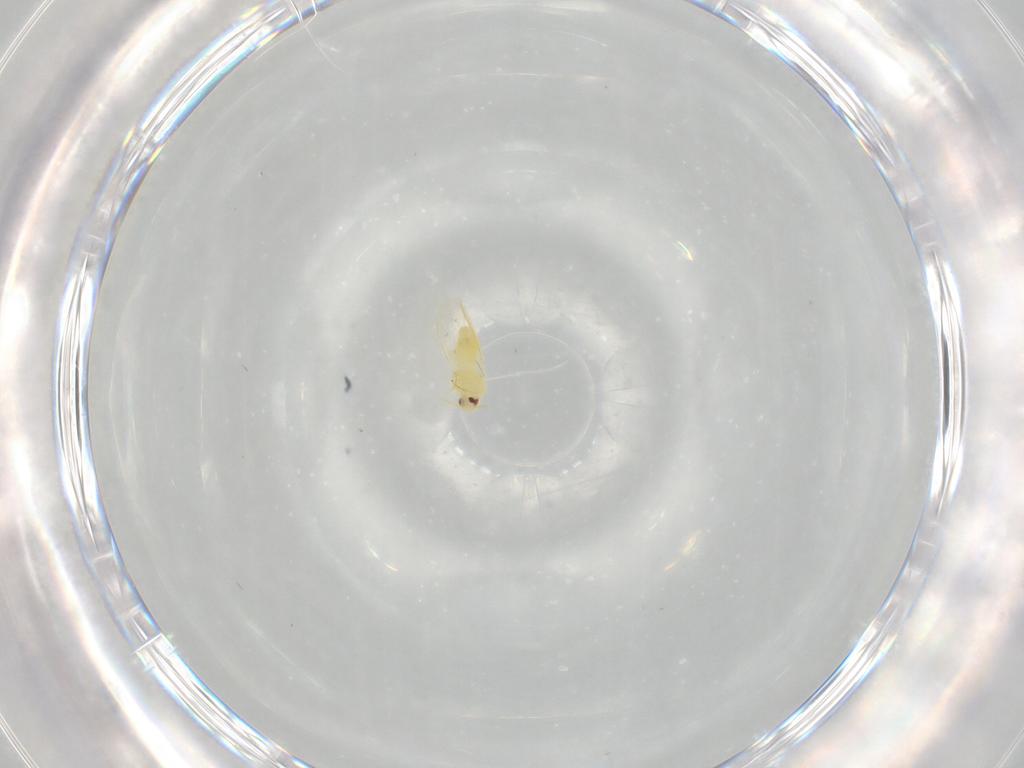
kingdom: Animalia
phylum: Arthropoda
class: Insecta
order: Hemiptera
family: Aleyrodidae
